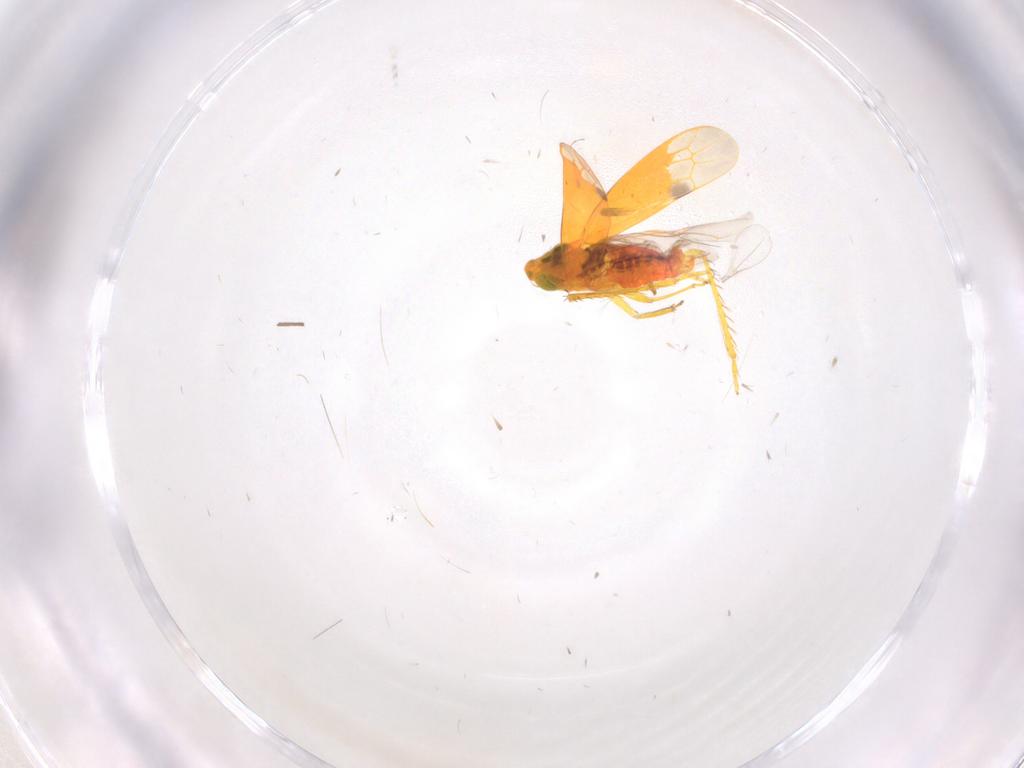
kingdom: Animalia
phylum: Arthropoda
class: Insecta
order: Hemiptera
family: Cicadellidae
